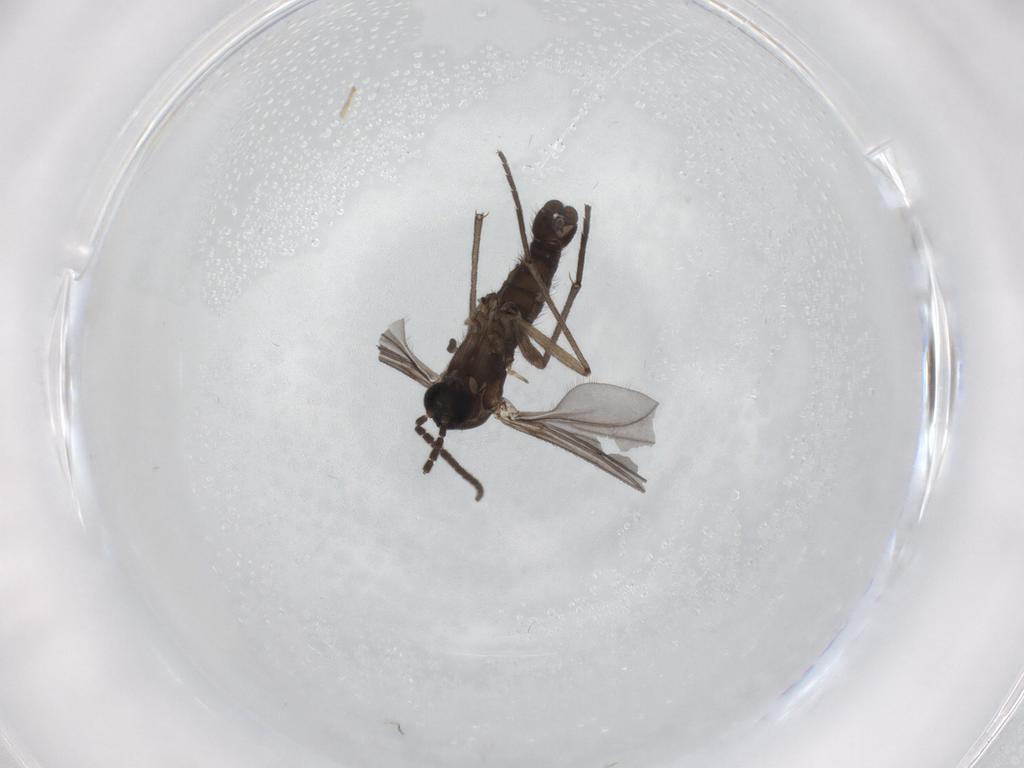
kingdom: Animalia
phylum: Arthropoda
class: Insecta
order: Diptera
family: Sciaridae
